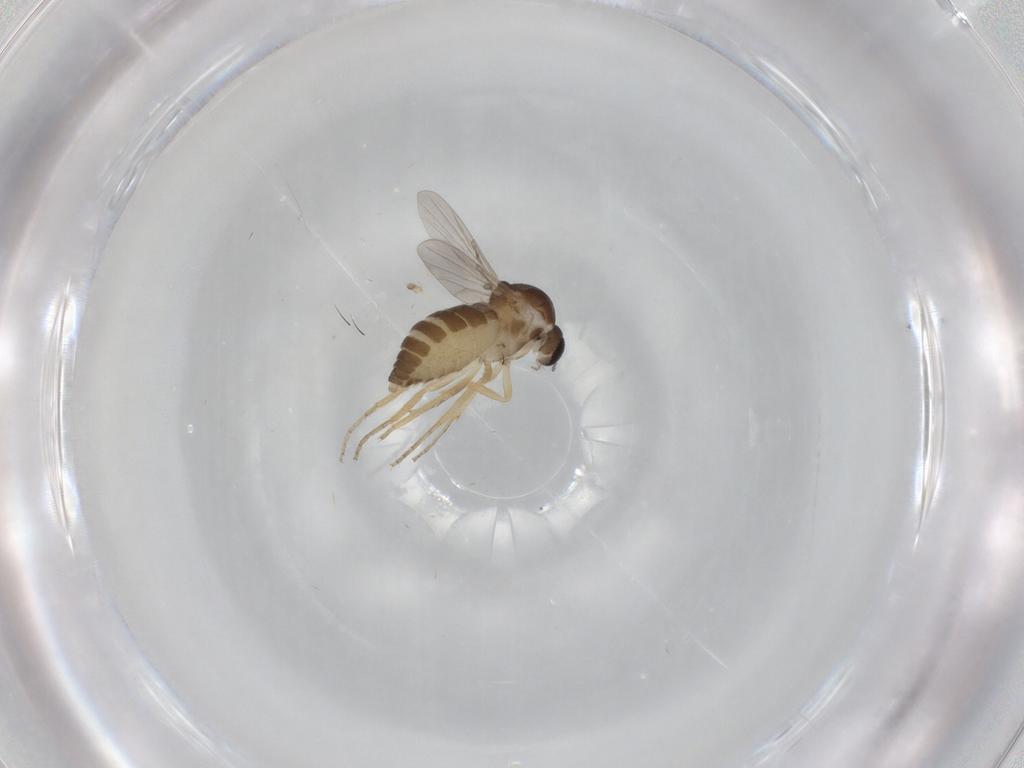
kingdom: Animalia
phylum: Arthropoda
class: Insecta
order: Diptera
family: Ceratopogonidae
